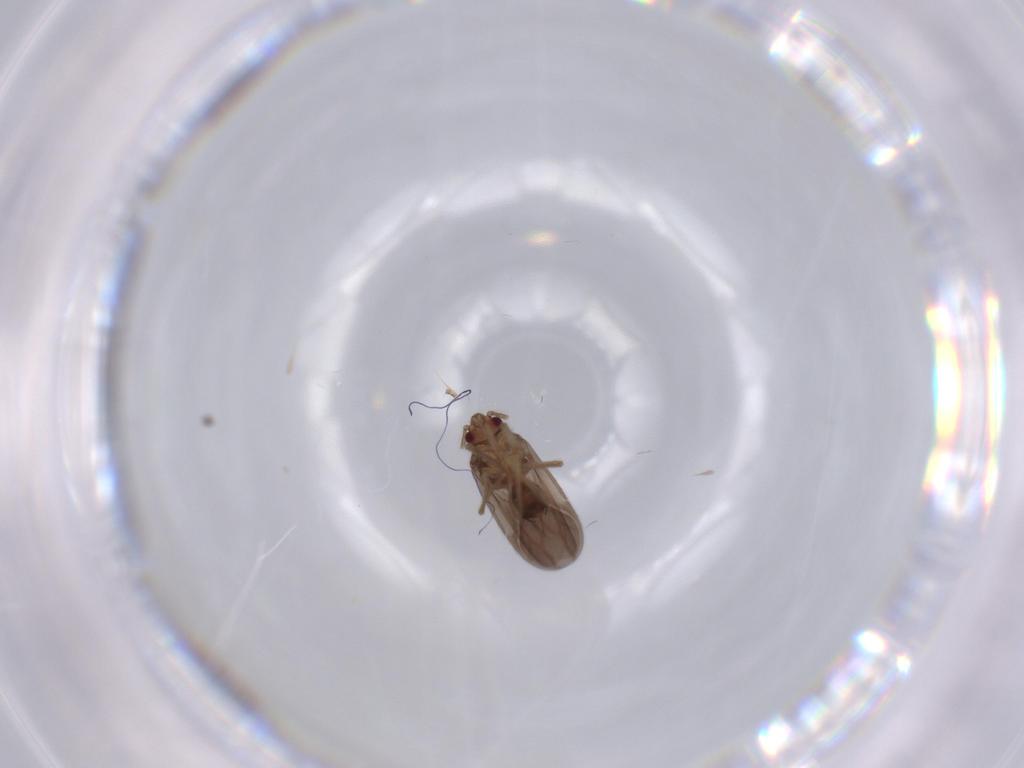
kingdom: Animalia
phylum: Arthropoda
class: Insecta
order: Hemiptera
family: Ceratocombidae
